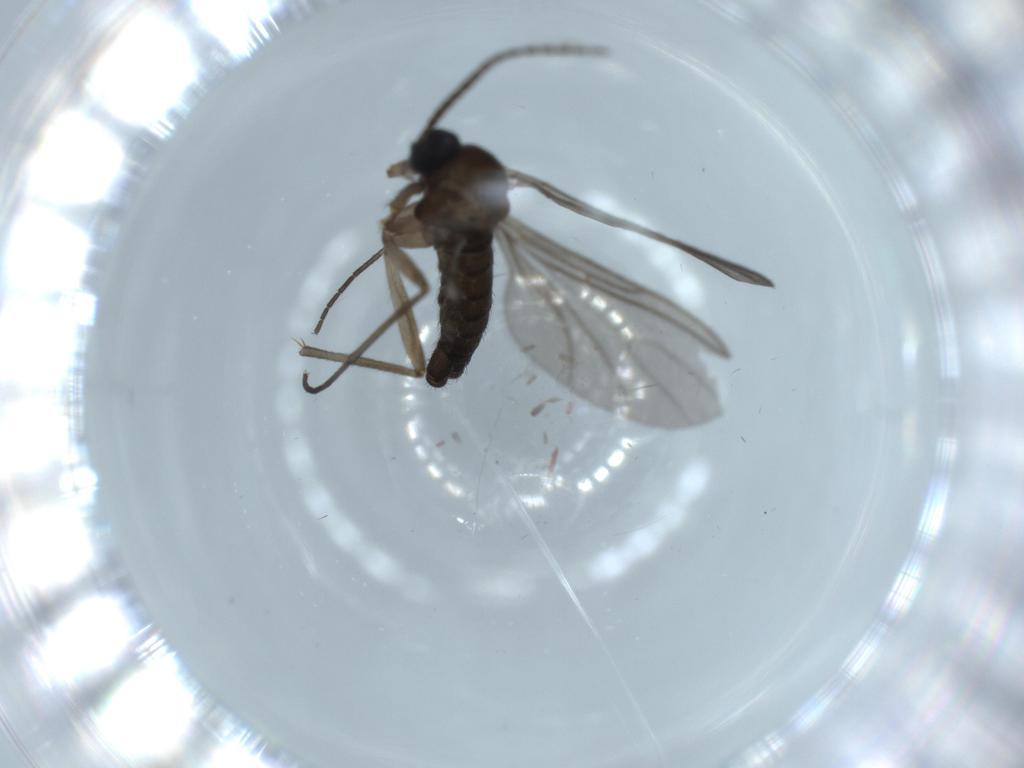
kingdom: Animalia
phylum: Arthropoda
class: Insecta
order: Diptera
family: Sciaridae
